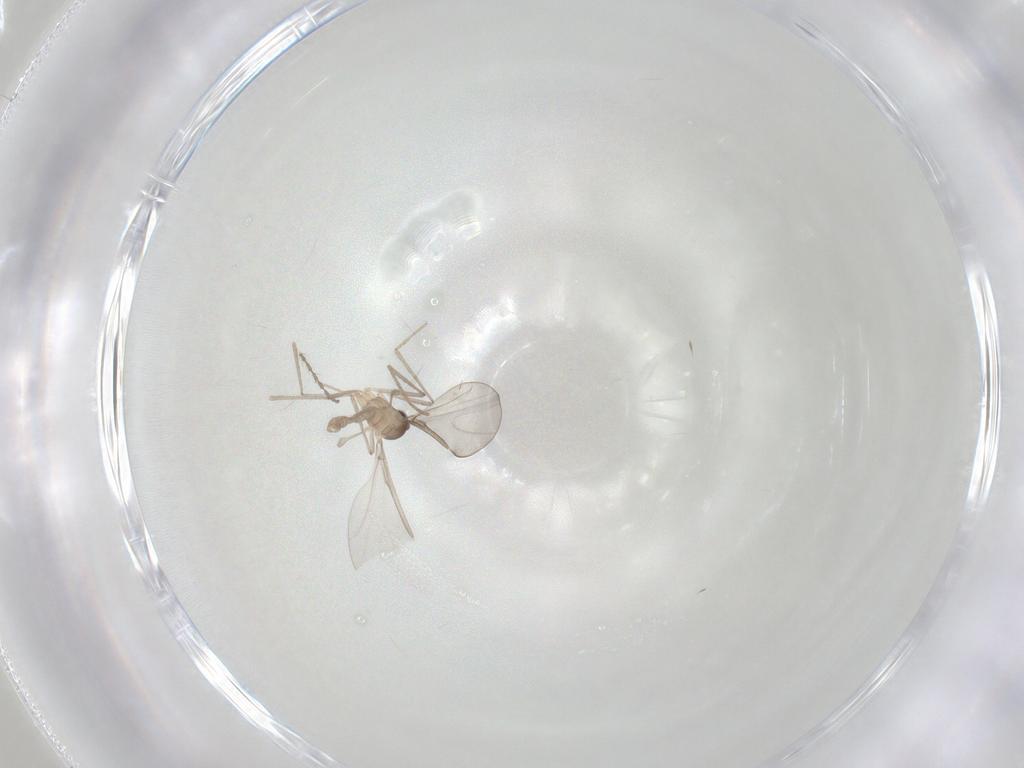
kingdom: Animalia
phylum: Arthropoda
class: Insecta
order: Diptera
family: Cecidomyiidae
